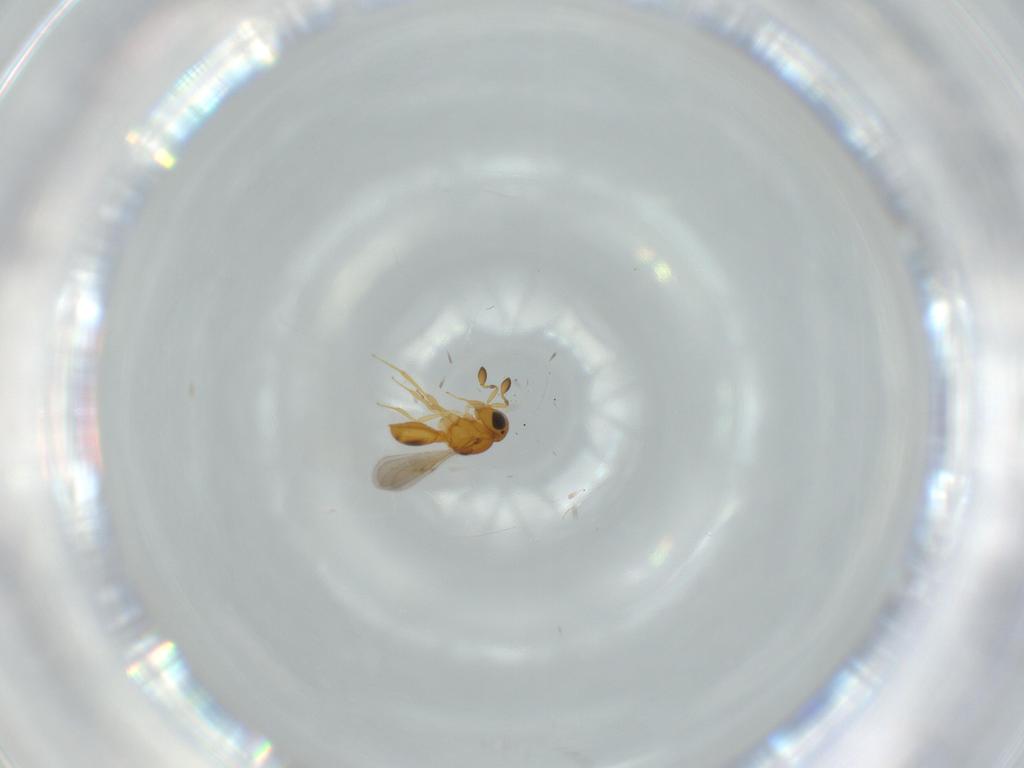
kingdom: Animalia
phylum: Arthropoda
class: Insecta
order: Hymenoptera
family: Scelionidae
